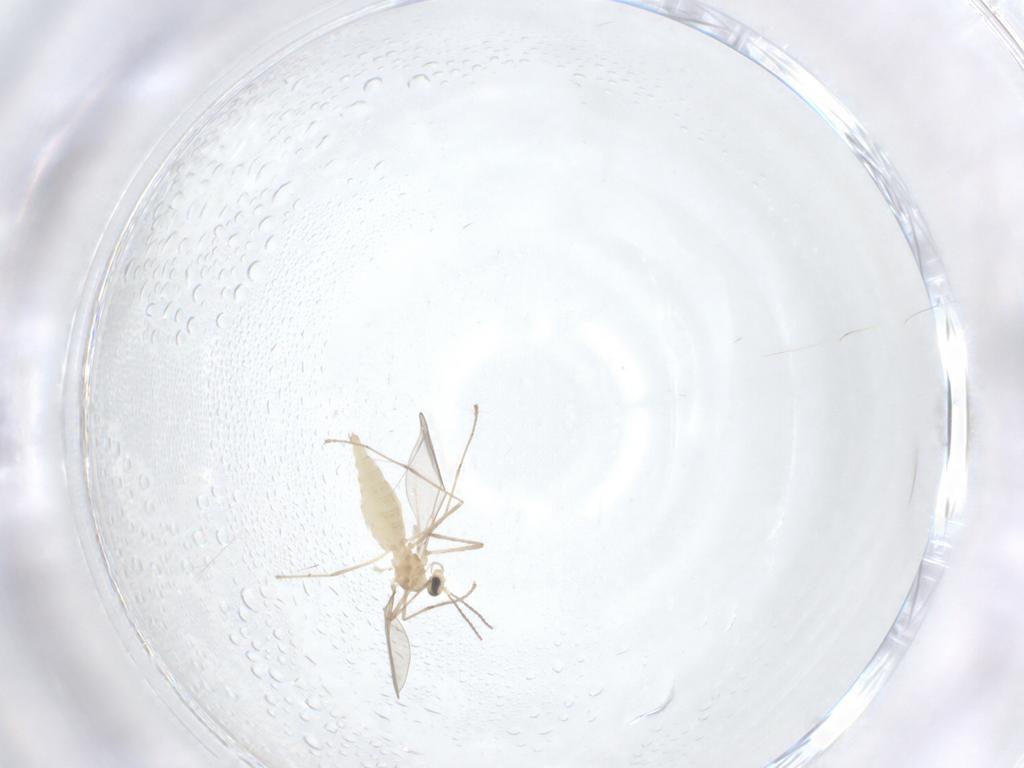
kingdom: Animalia
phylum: Arthropoda
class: Insecta
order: Diptera
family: Cecidomyiidae
